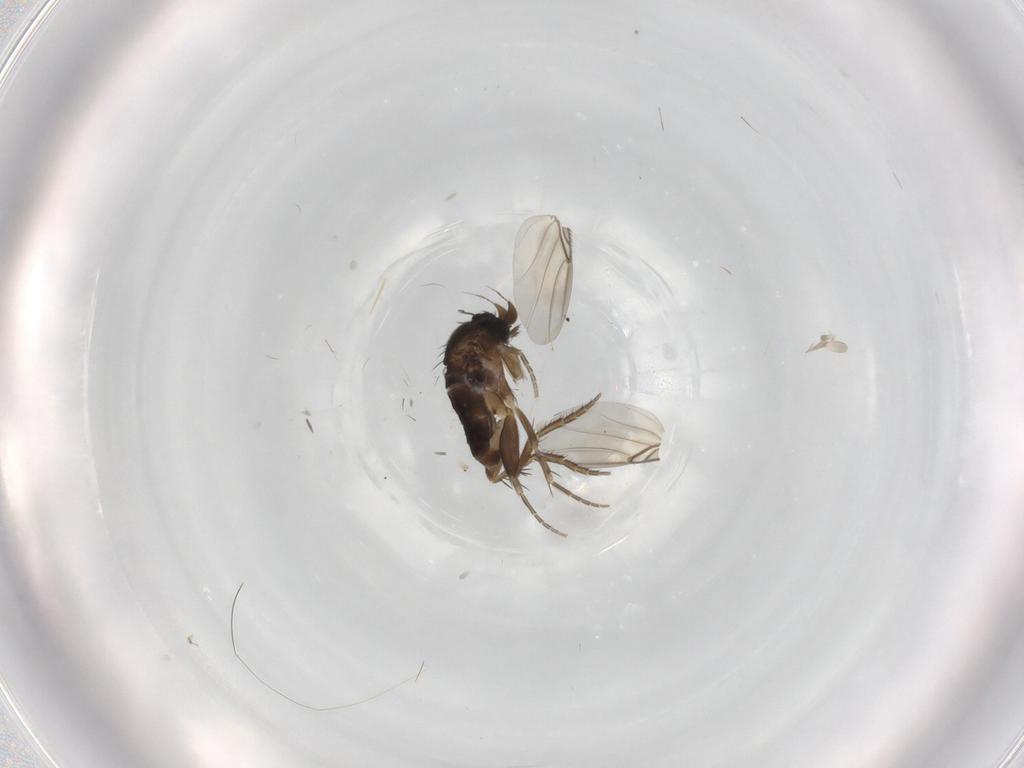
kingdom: Animalia
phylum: Arthropoda
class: Insecta
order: Diptera
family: Phoridae
